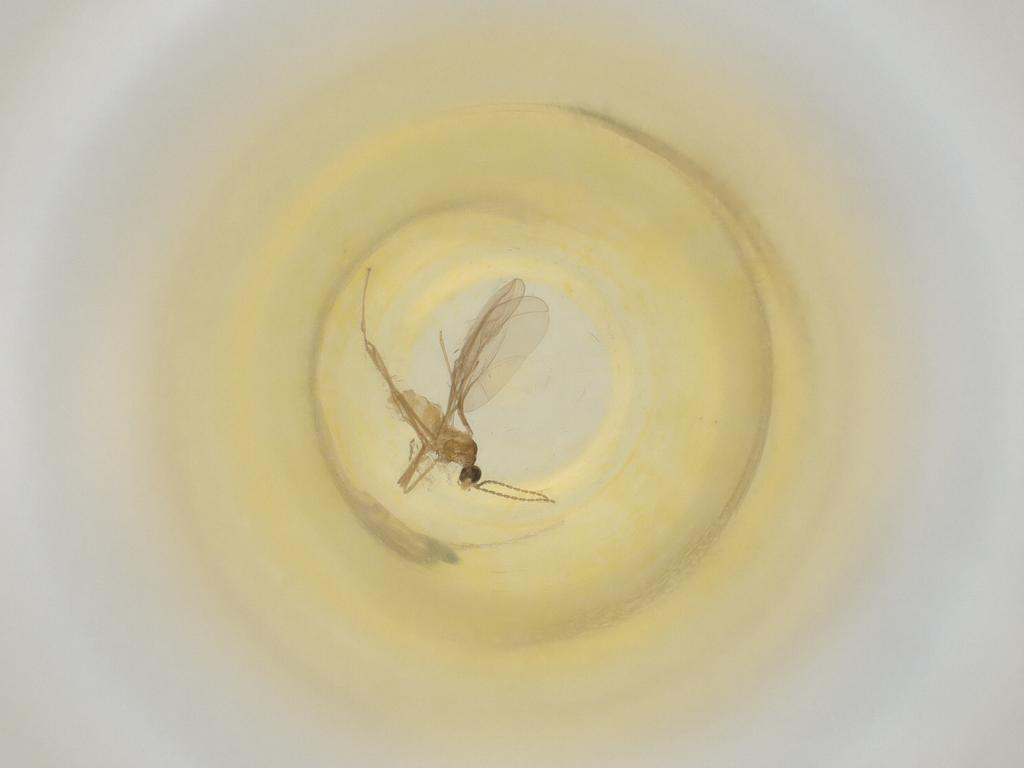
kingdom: Animalia
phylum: Arthropoda
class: Insecta
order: Diptera
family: Cecidomyiidae
